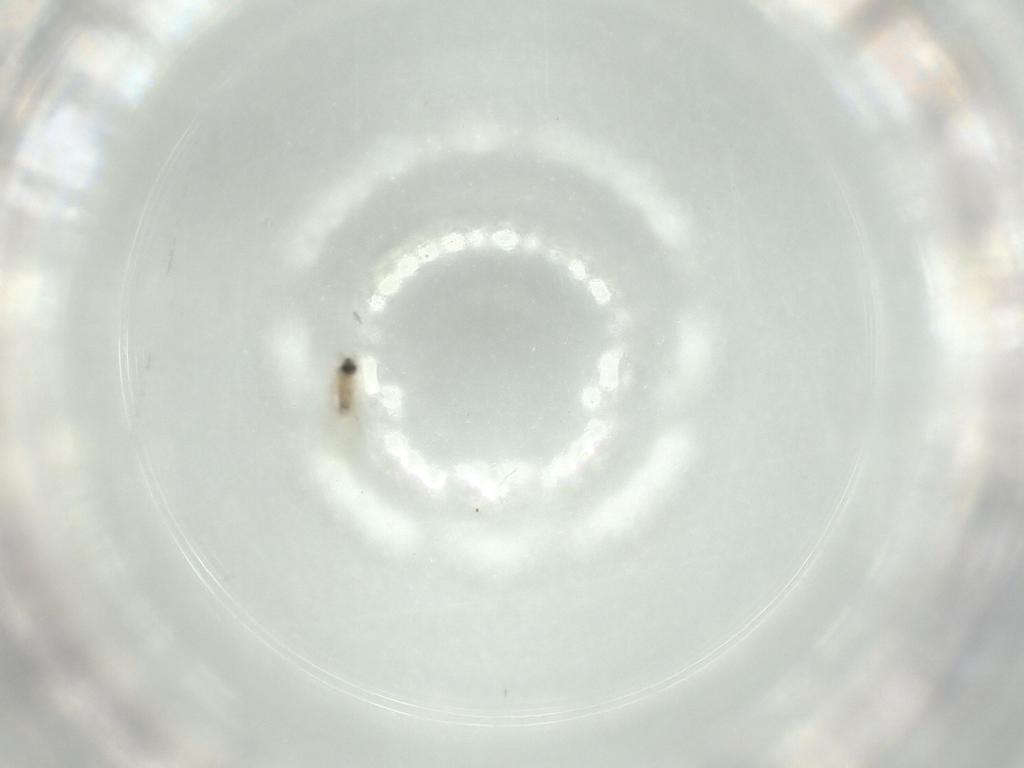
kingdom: Animalia
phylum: Arthropoda
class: Insecta
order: Diptera
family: Cecidomyiidae
